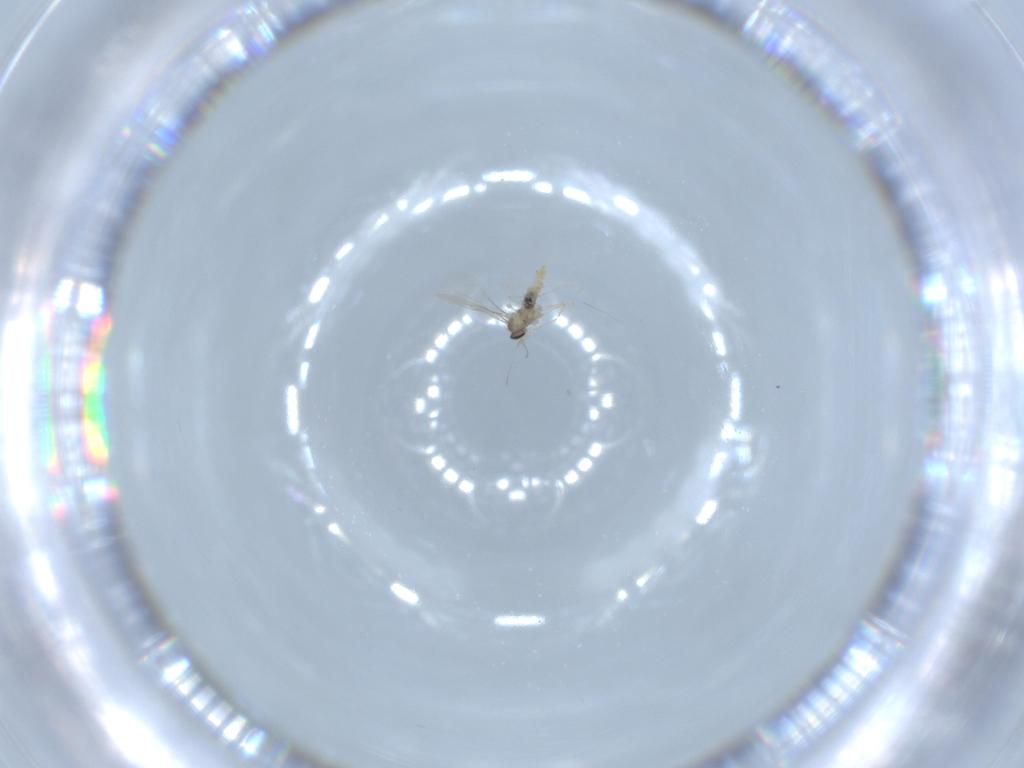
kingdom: Animalia
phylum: Arthropoda
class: Insecta
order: Diptera
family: Cecidomyiidae
